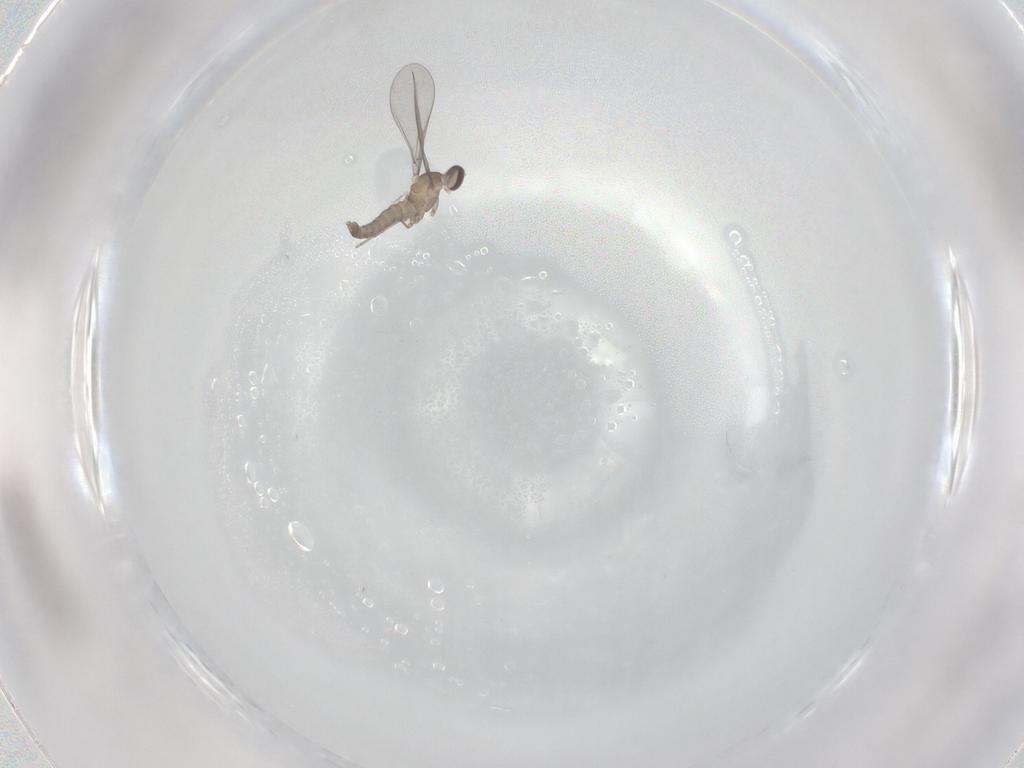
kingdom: Animalia
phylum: Arthropoda
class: Insecta
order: Diptera
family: Cecidomyiidae
